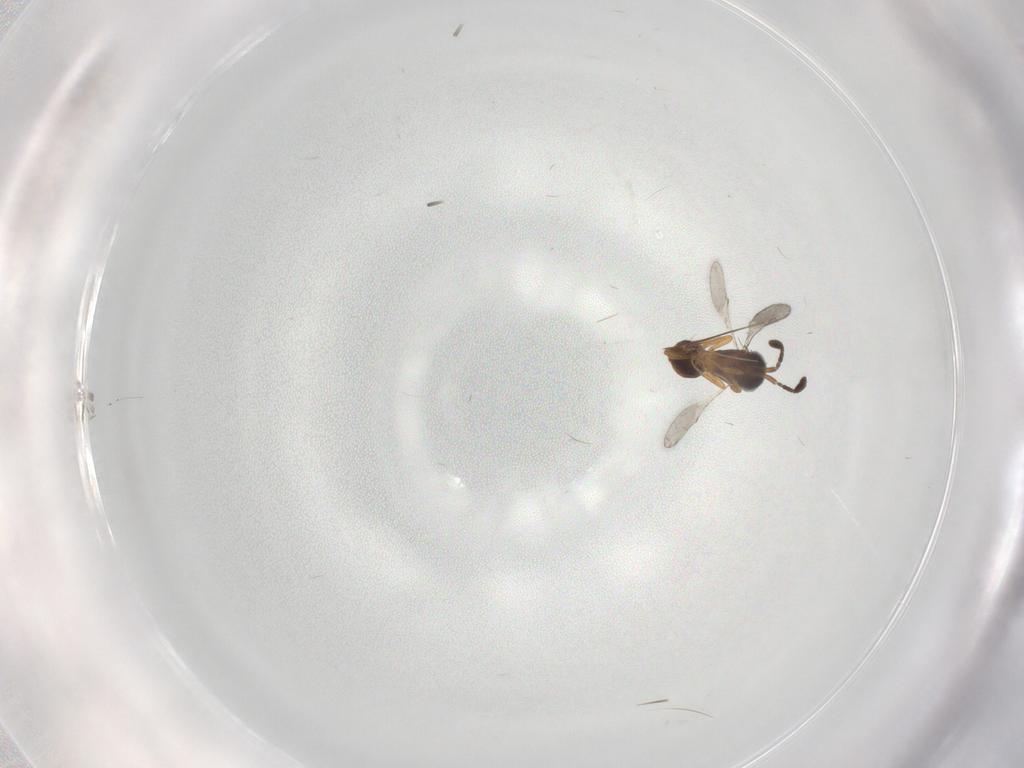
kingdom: Animalia
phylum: Arthropoda
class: Insecta
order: Hymenoptera
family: Scelionidae
